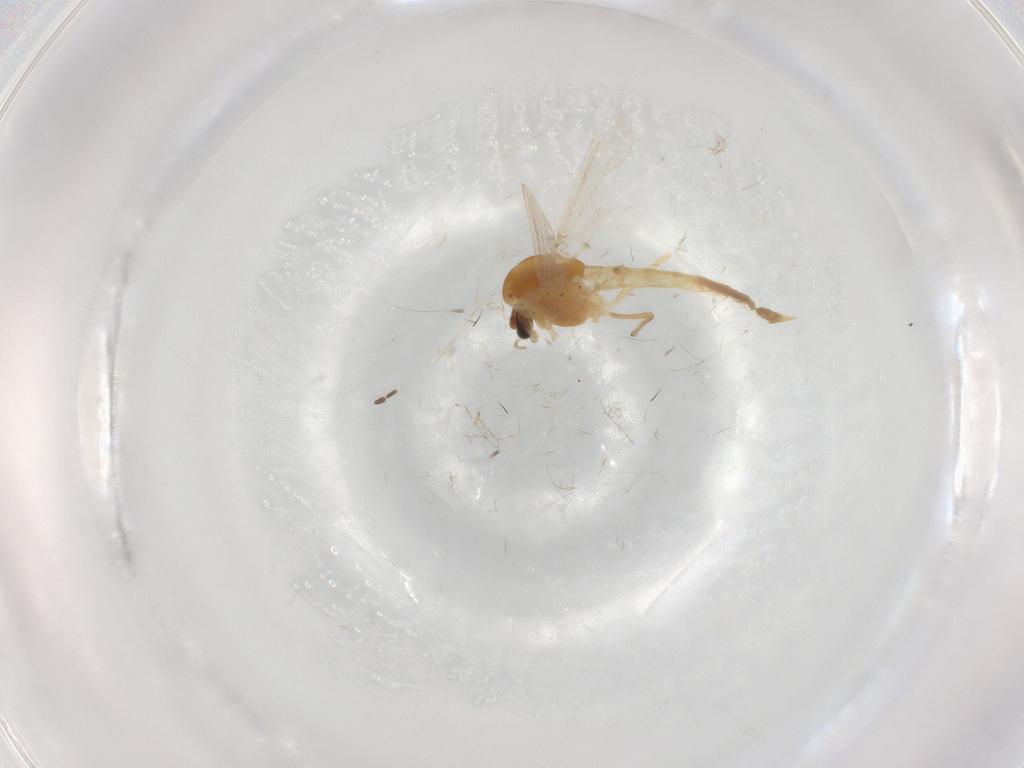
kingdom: Animalia
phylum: Arthropoda
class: Insecta
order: Diptera
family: Chironomidae
